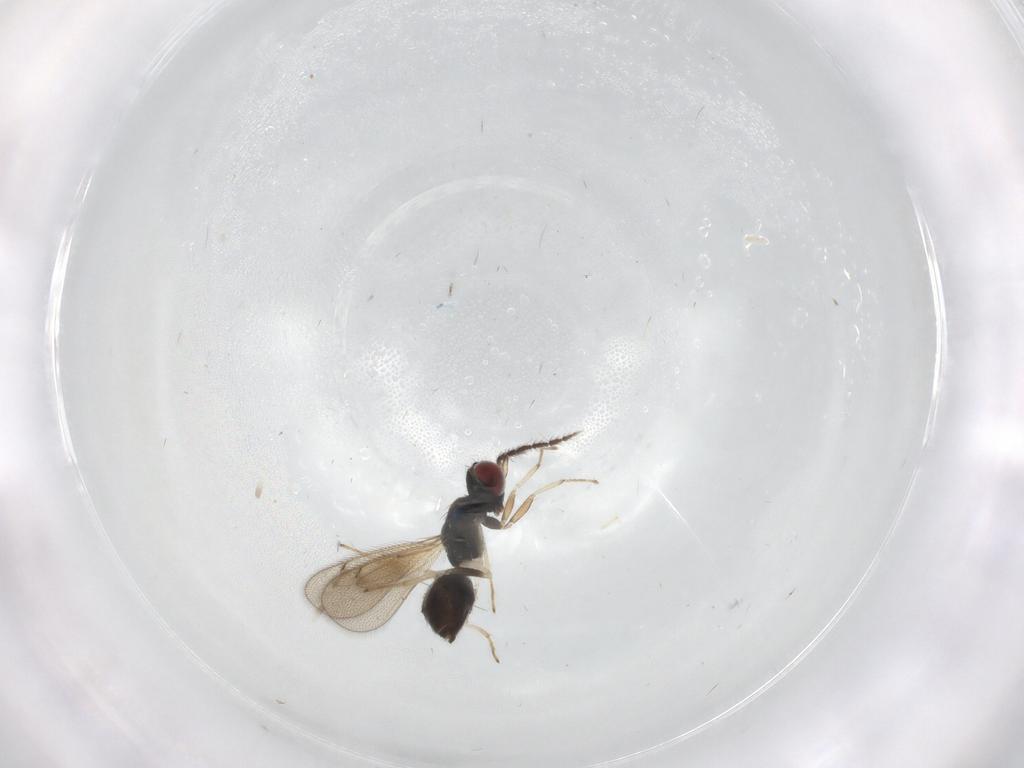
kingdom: Animalia
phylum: Arthropoda
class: Insecta
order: Hymenoptera
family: Eulophidae
